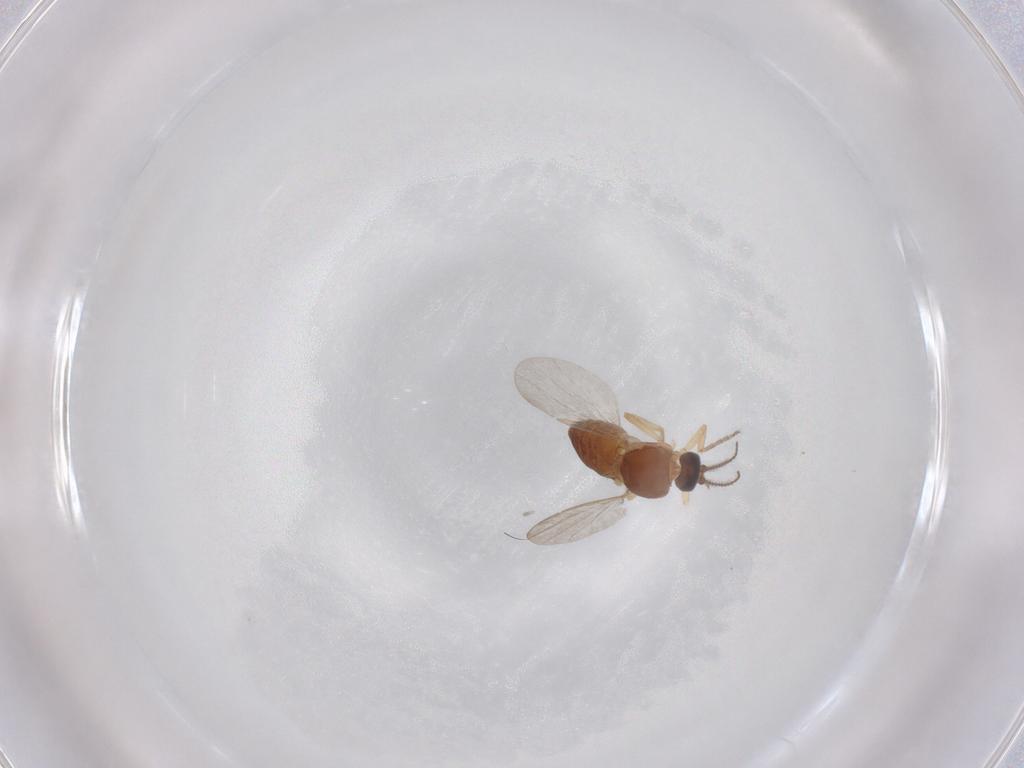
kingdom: Animalia
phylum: Arthropoda
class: Insecta
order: Diptera
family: Ceratopogonidae
